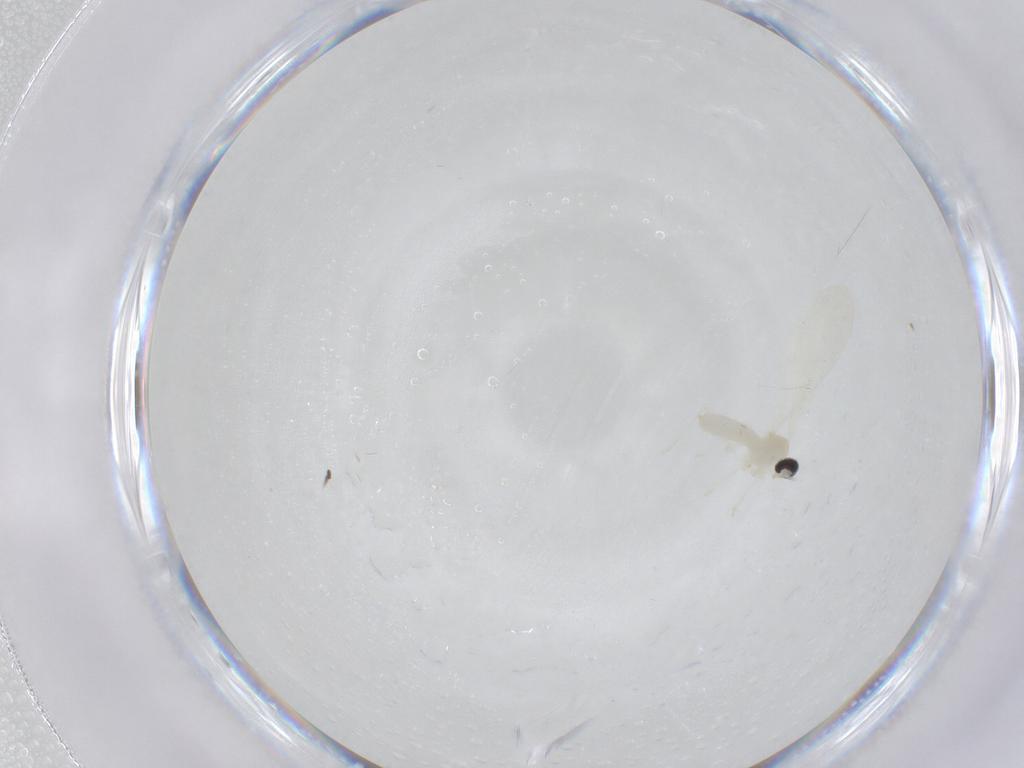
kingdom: Animalia
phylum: Arthropoda
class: Insecta
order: Diptera
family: Cecidomyiidae
